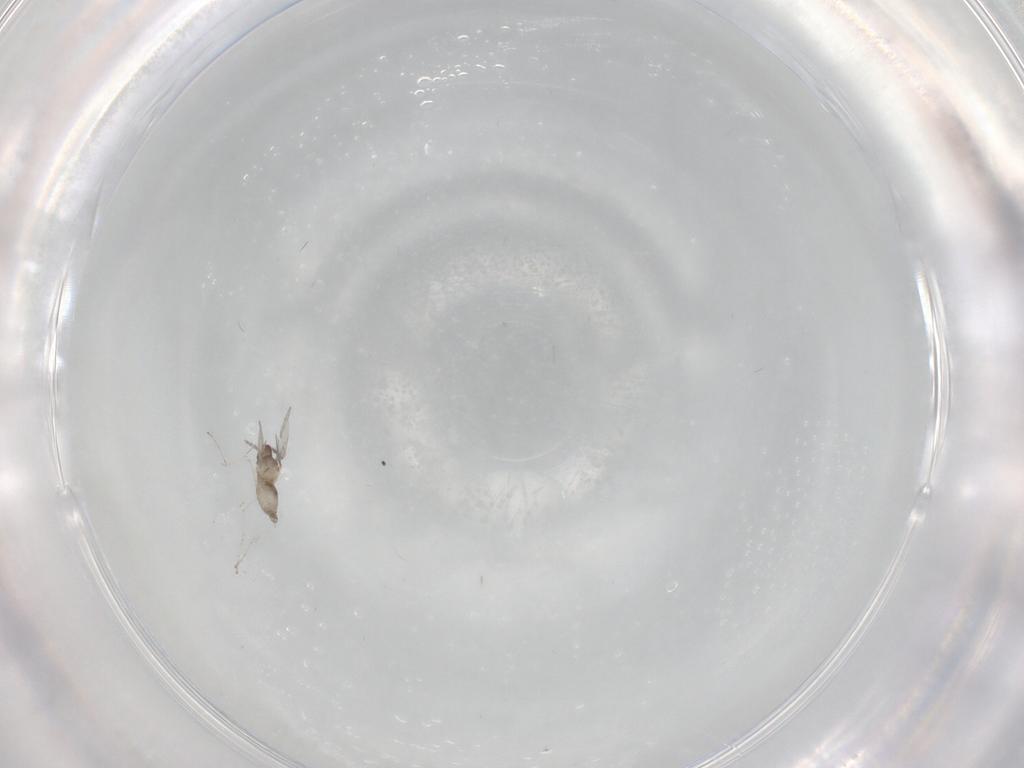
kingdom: Animalia
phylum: Arthropoda
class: Insecta
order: Diptera
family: Cecidomyiidae
